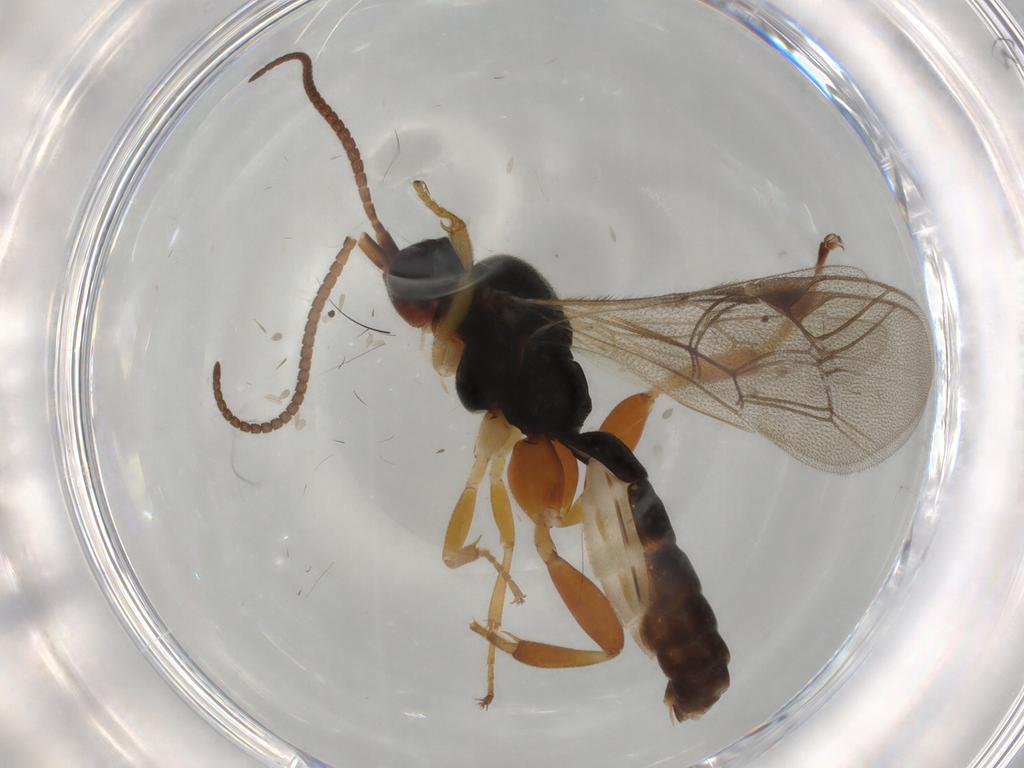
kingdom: Animalia
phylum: Arthropoda
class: Insecta
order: Hymenoptera
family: Ichneumonidae
